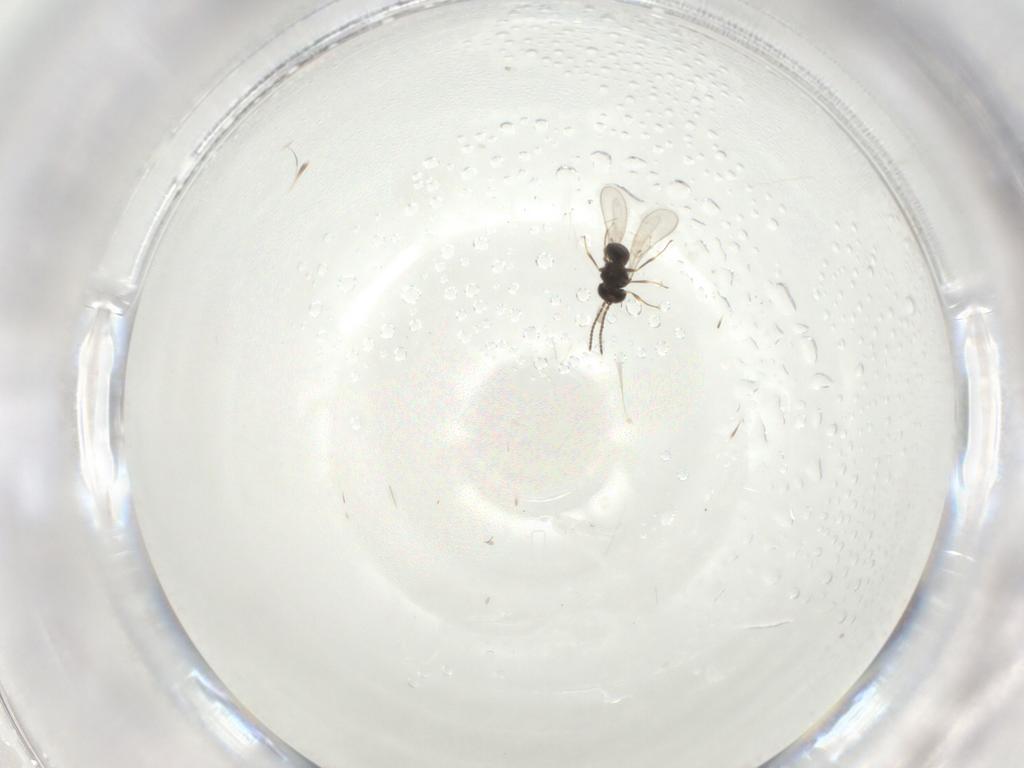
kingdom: Animalia
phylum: Arthropoda
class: Insecta
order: Hymenoptera
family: Scelionidae
